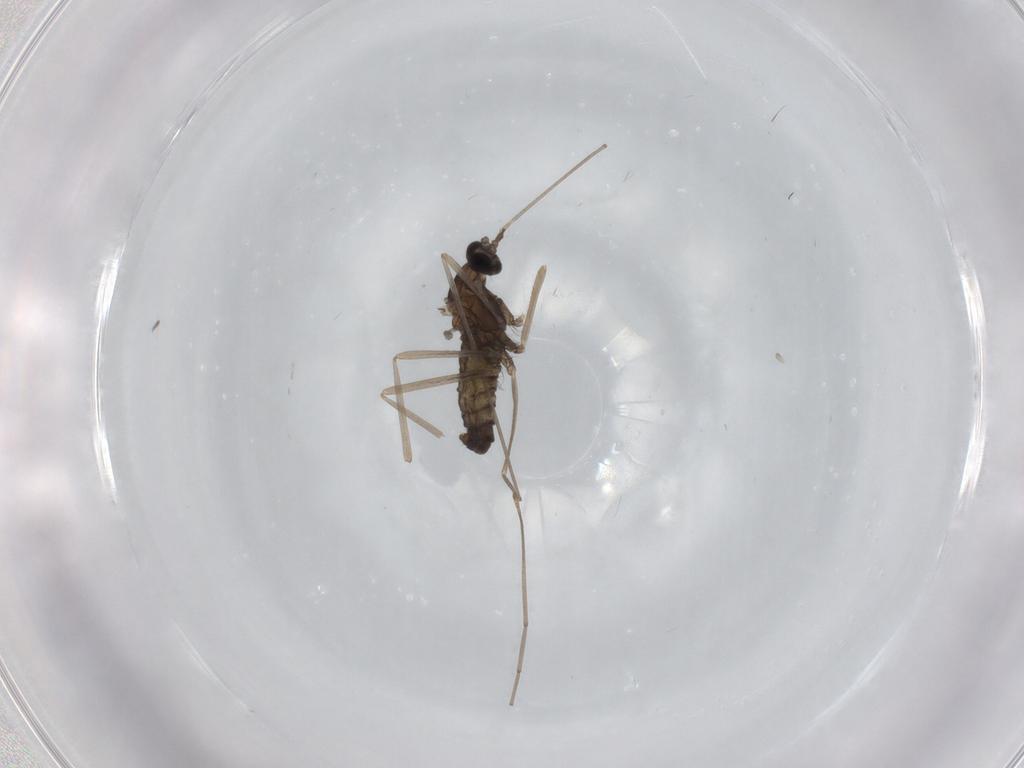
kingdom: Animalia
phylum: Arthropoda
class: Insecta
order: Diptera
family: Cecidomyiidae
